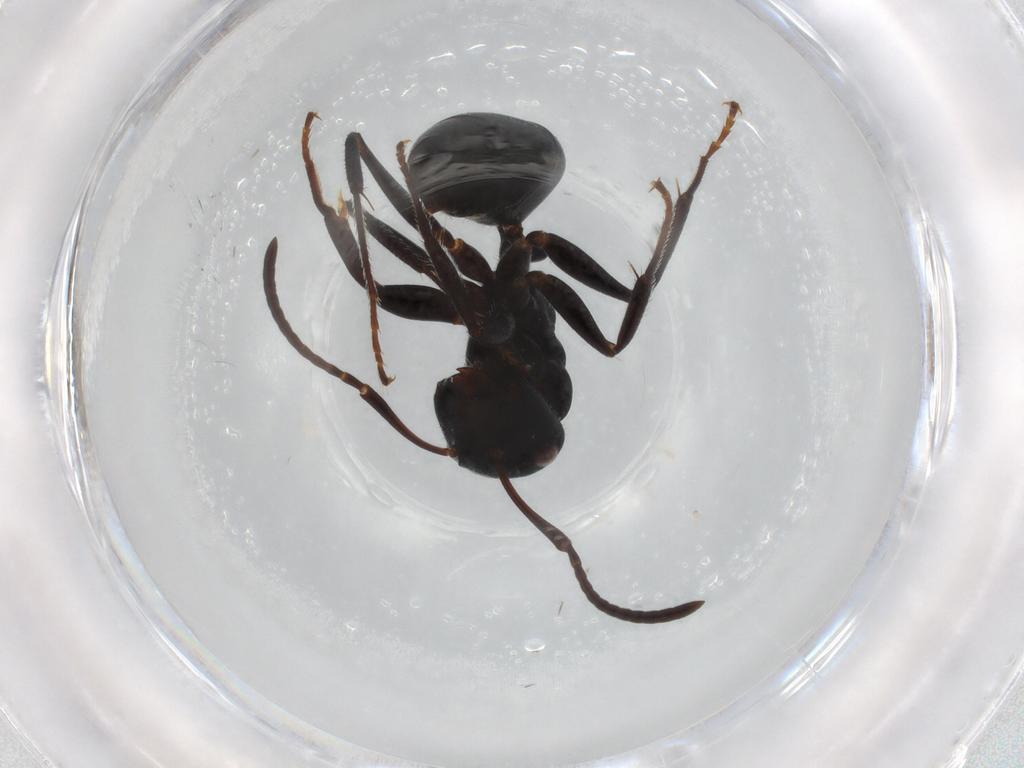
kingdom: Animalia
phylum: Arthropoda
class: Insecta
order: Hymenoptera
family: Formicidae
